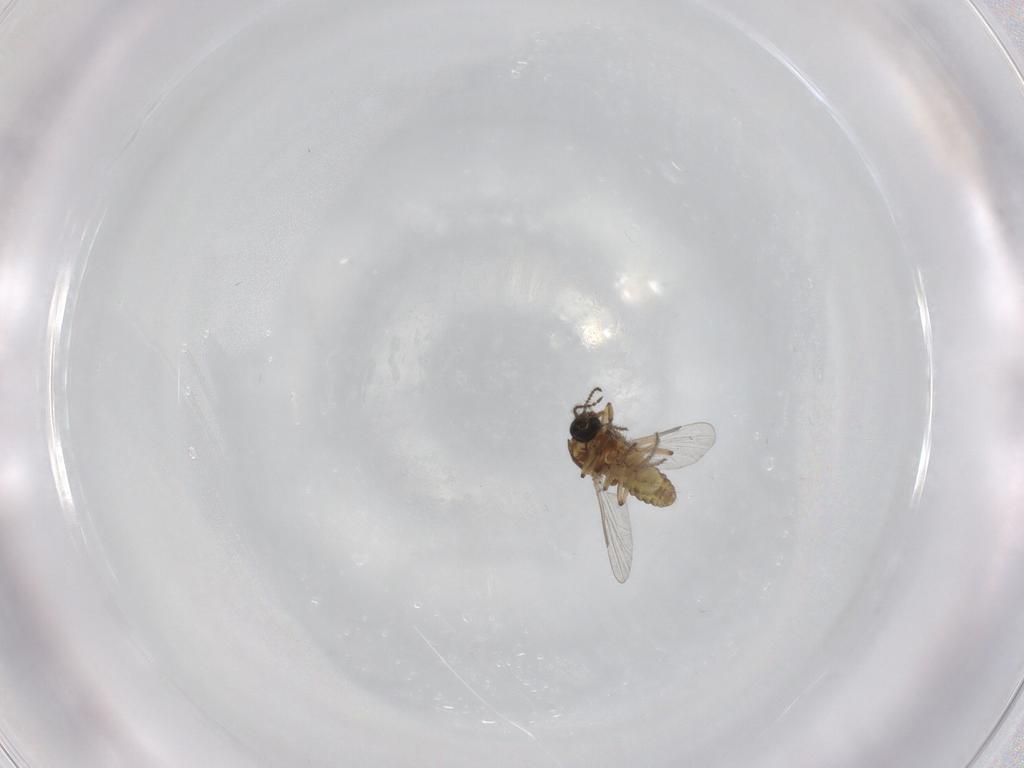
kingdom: Animalia
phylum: Arthropoda
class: Insecta
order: Diptera
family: Ceratopogonidae
